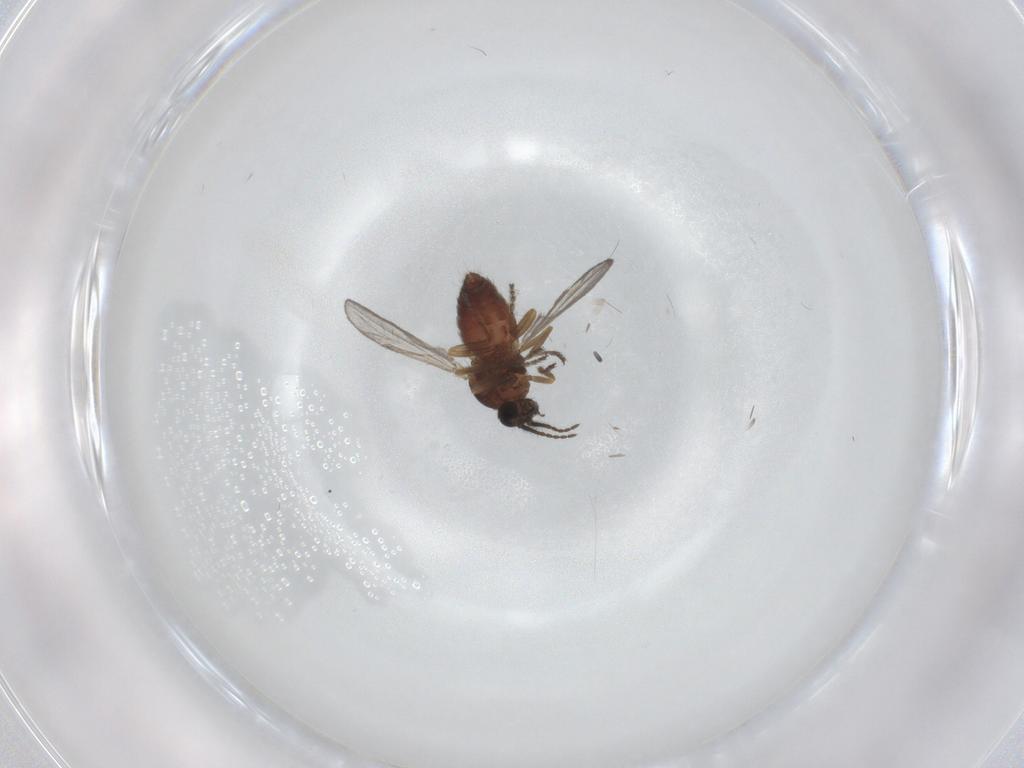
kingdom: Animalia
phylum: Arthropoda
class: Insecta
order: Diptera
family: Ceratopogonidae
